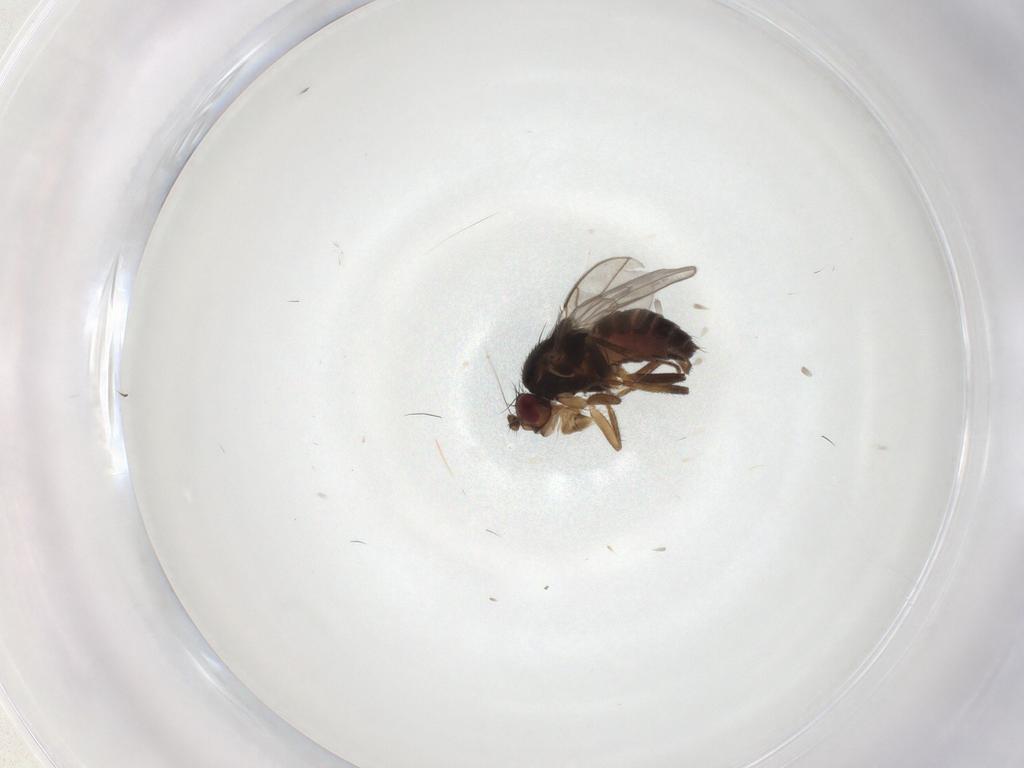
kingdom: Animalia
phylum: Arthropoda
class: Insecta
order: Diptera
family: Sphaeroceridae
